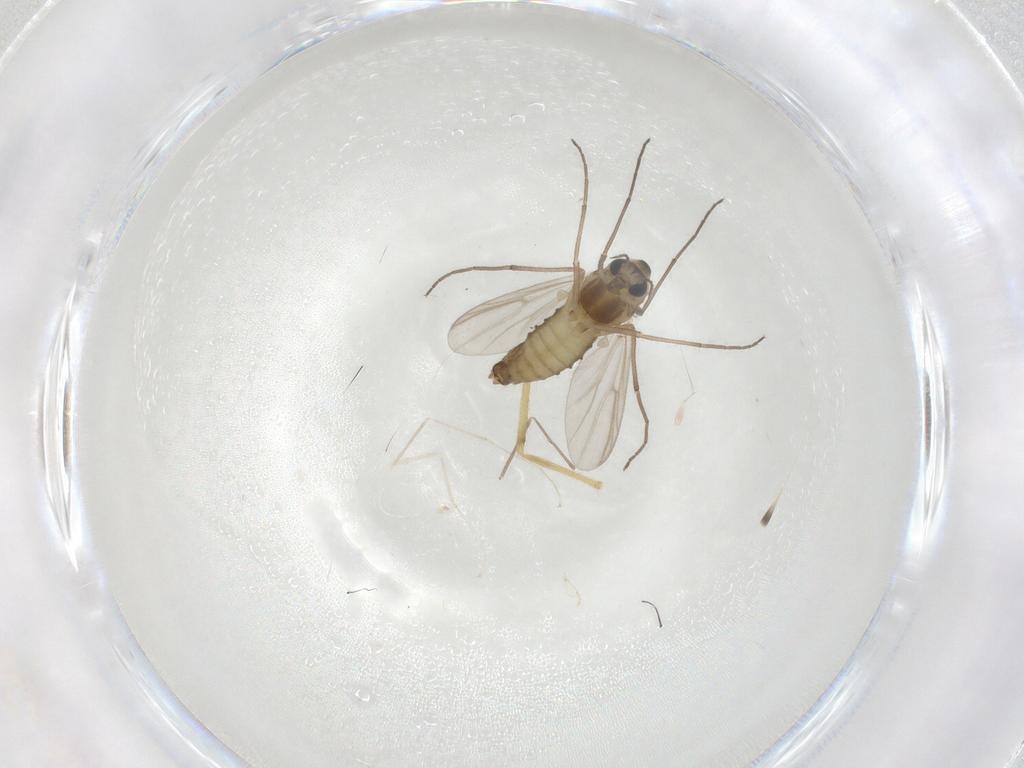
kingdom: Animalia
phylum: Arthropoda
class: Insecta
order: Diptera
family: Chironomidae
